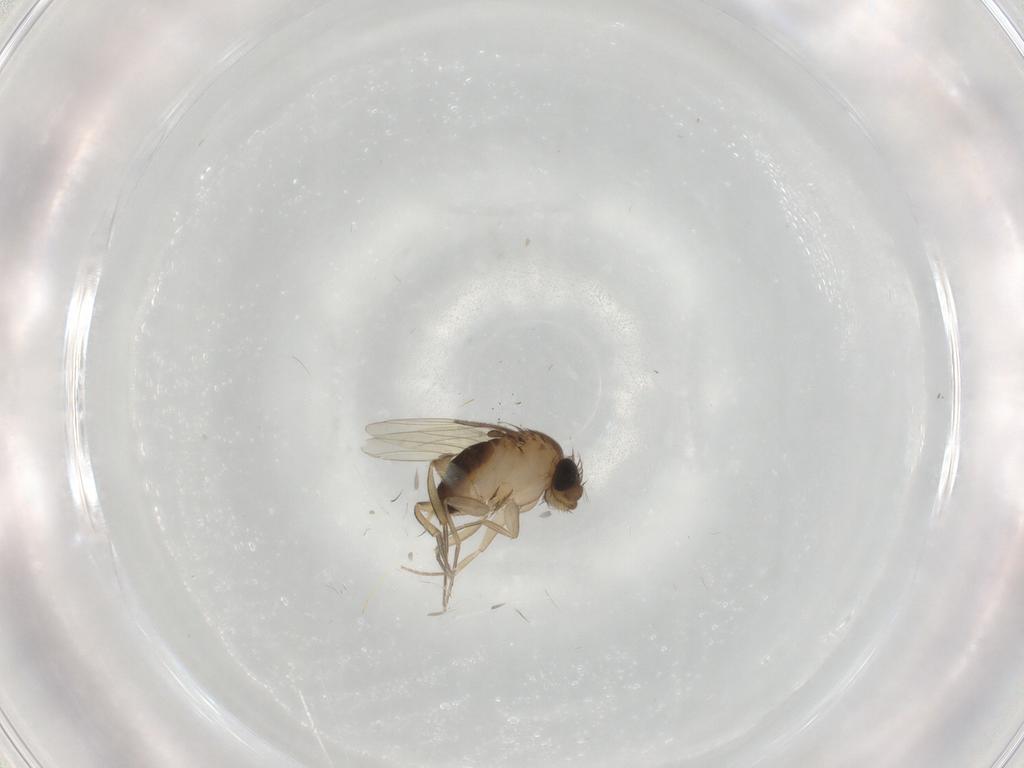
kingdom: Animalia
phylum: Arthropoda
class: Insecta
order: Diptera
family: Phoridae
